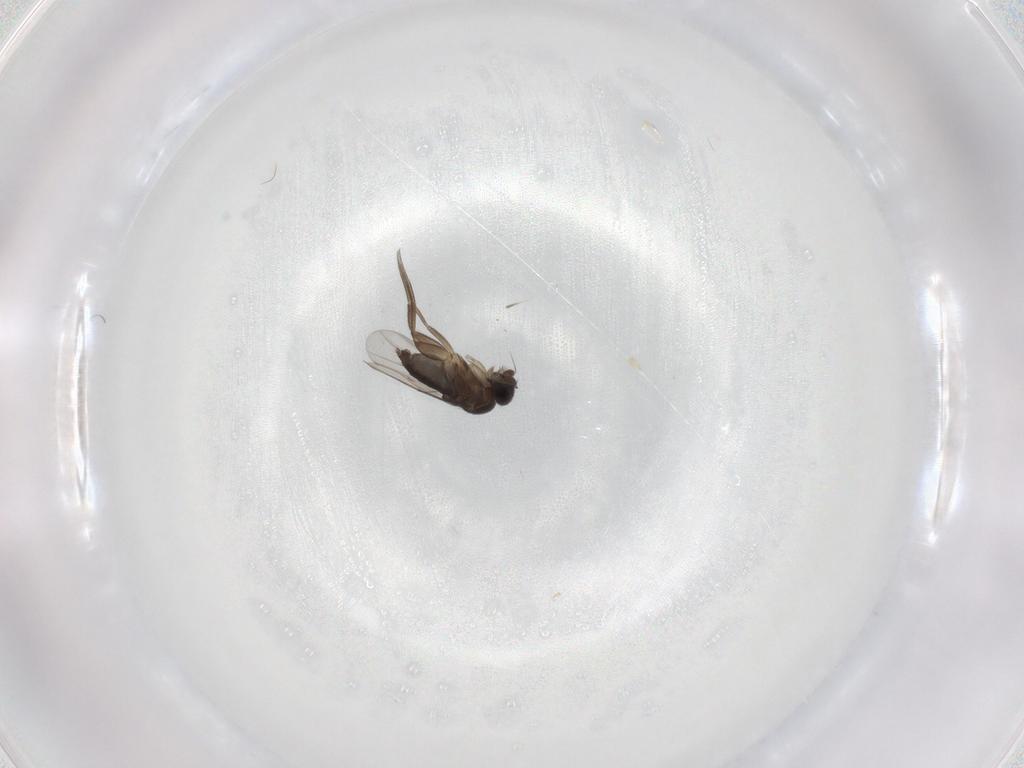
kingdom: Animalia
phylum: Arthropoda
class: Insecta
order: Diptera
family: Phoridae
